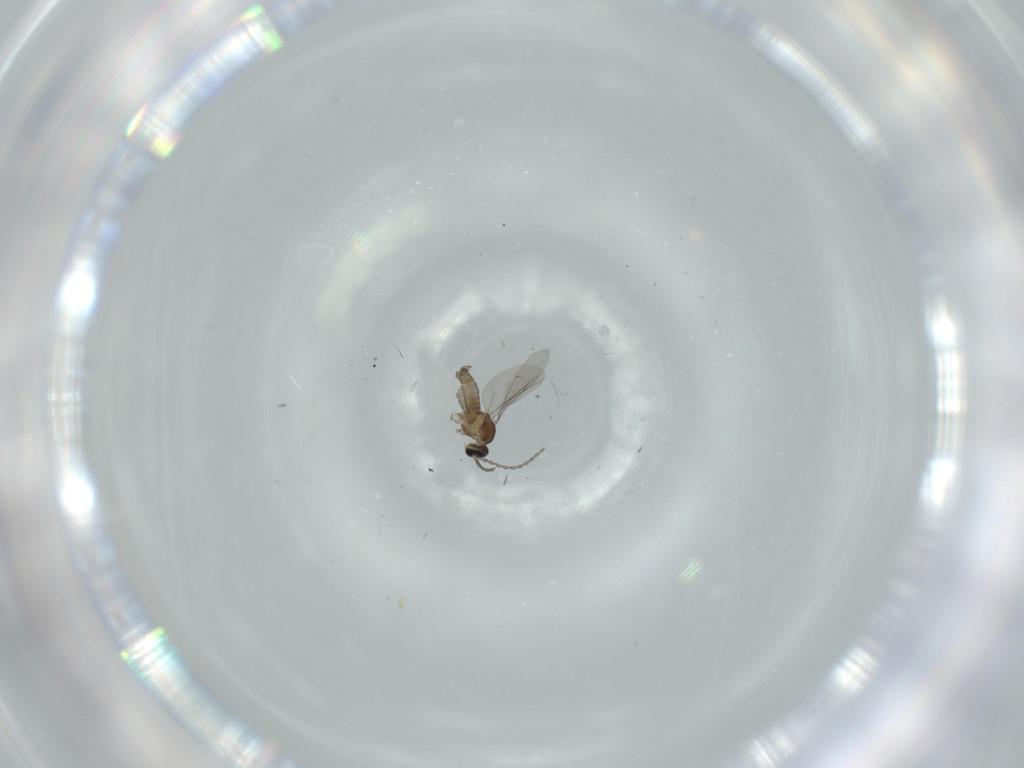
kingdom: Animalia
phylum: Arthropoda
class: Insecta
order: Diptera
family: Cecidomyiidae
